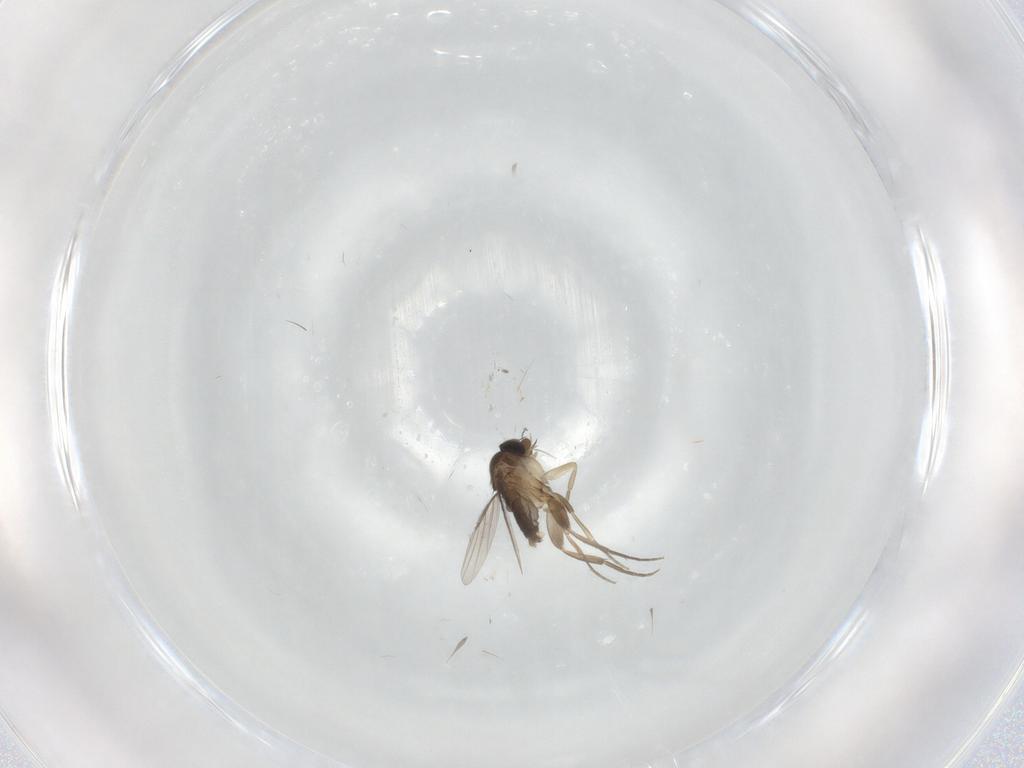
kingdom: Animalia
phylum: Arthropoda
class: Insecta
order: Diptera
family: Phoridae
